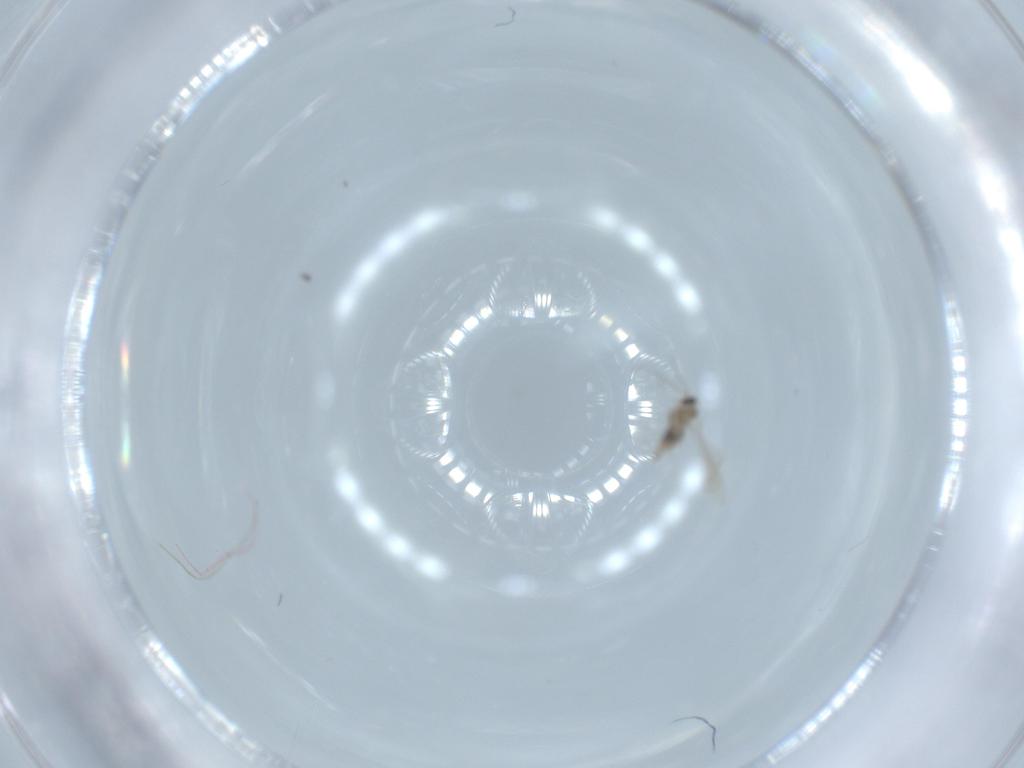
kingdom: Animalia
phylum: Arthropoda
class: Insecta
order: Diptera
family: Cecidomyiidae
